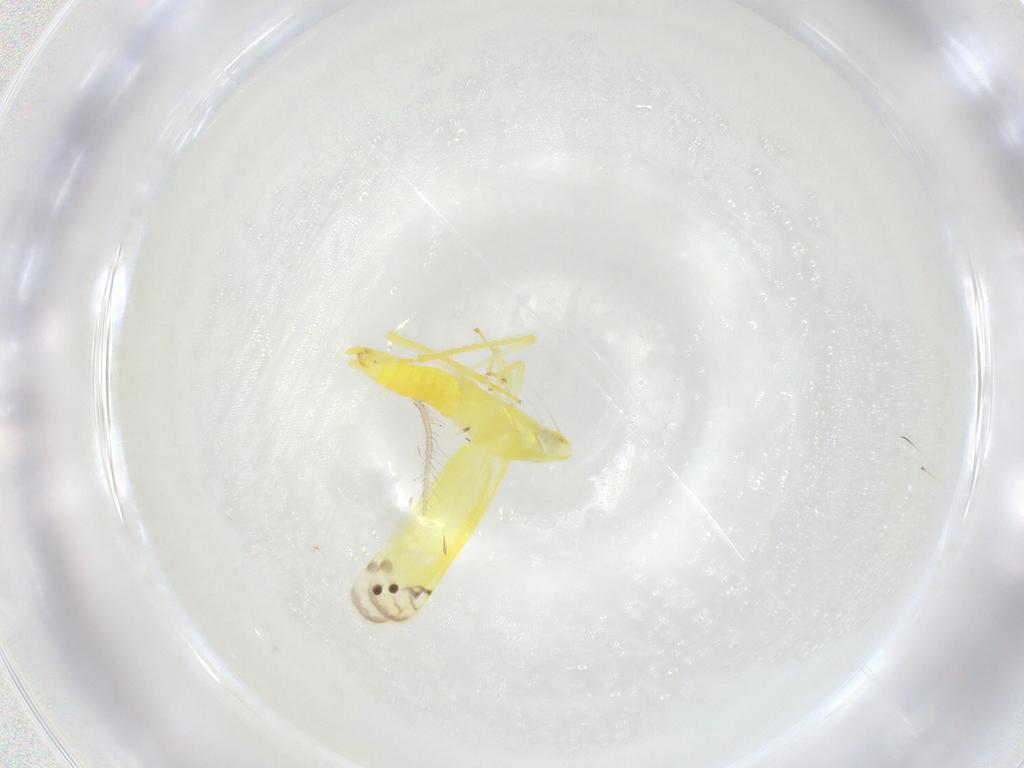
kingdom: Animalia
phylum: Arthropoda
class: Insecta
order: Hemiptera
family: Cicadellidae
